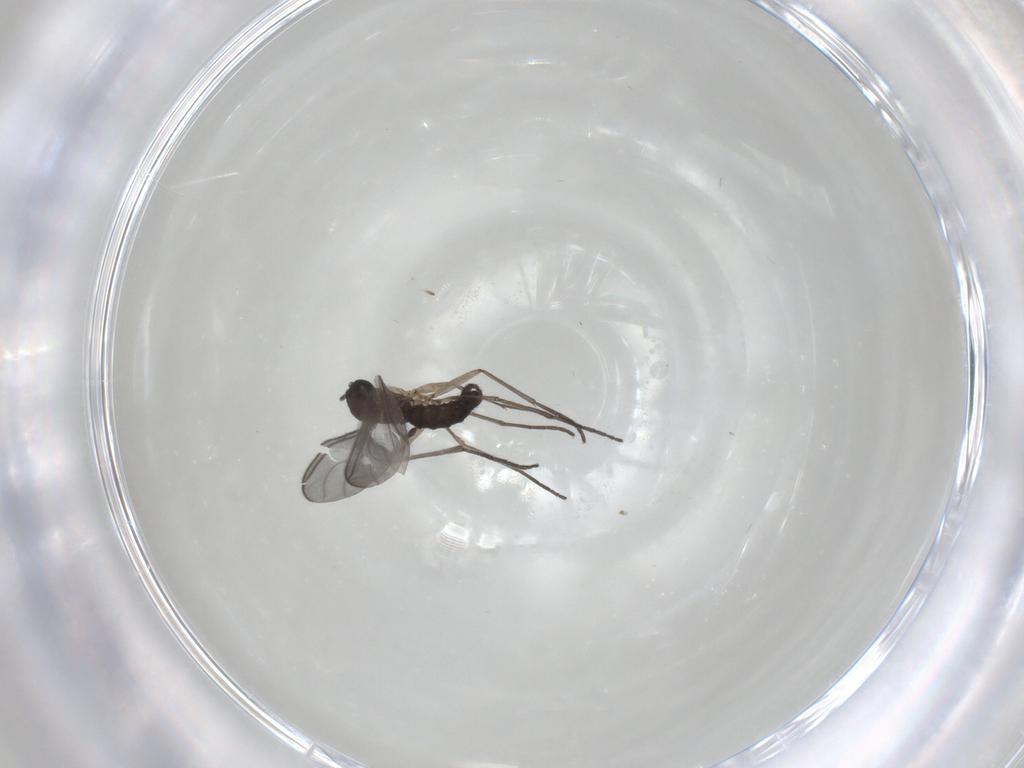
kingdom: Animalia
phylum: Arthropoda
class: Insecta
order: Diptera
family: Sciaridae
